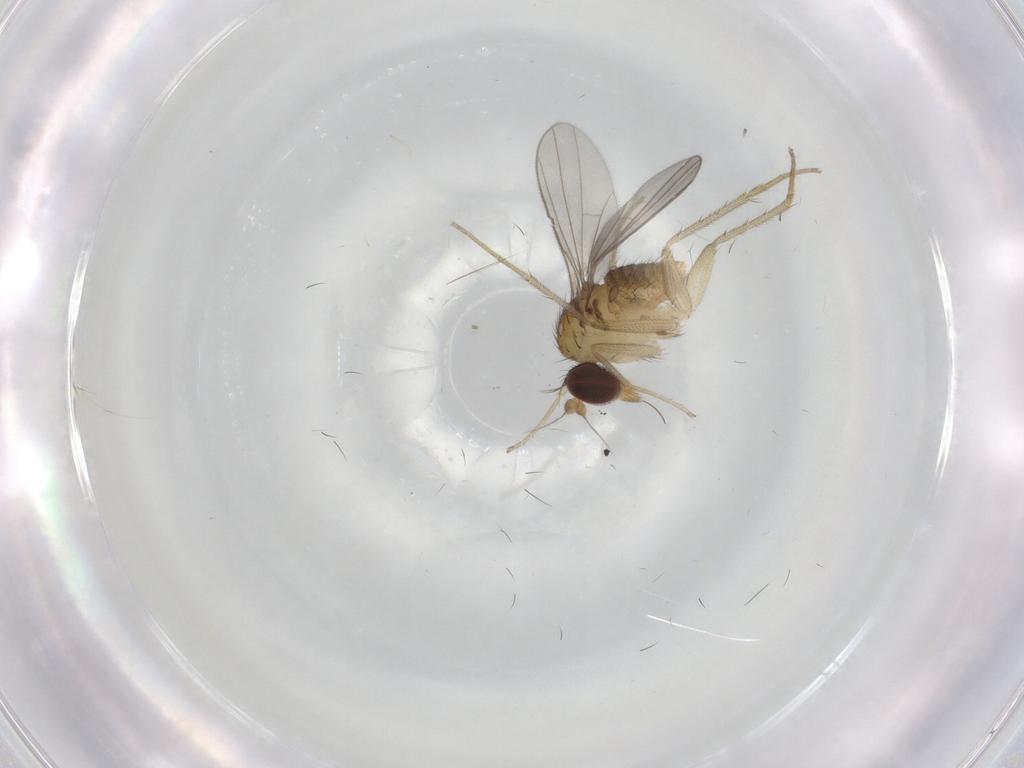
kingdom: Animalia
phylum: Arthropoda
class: Insecta
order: Diptera
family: Dolichopodidae
